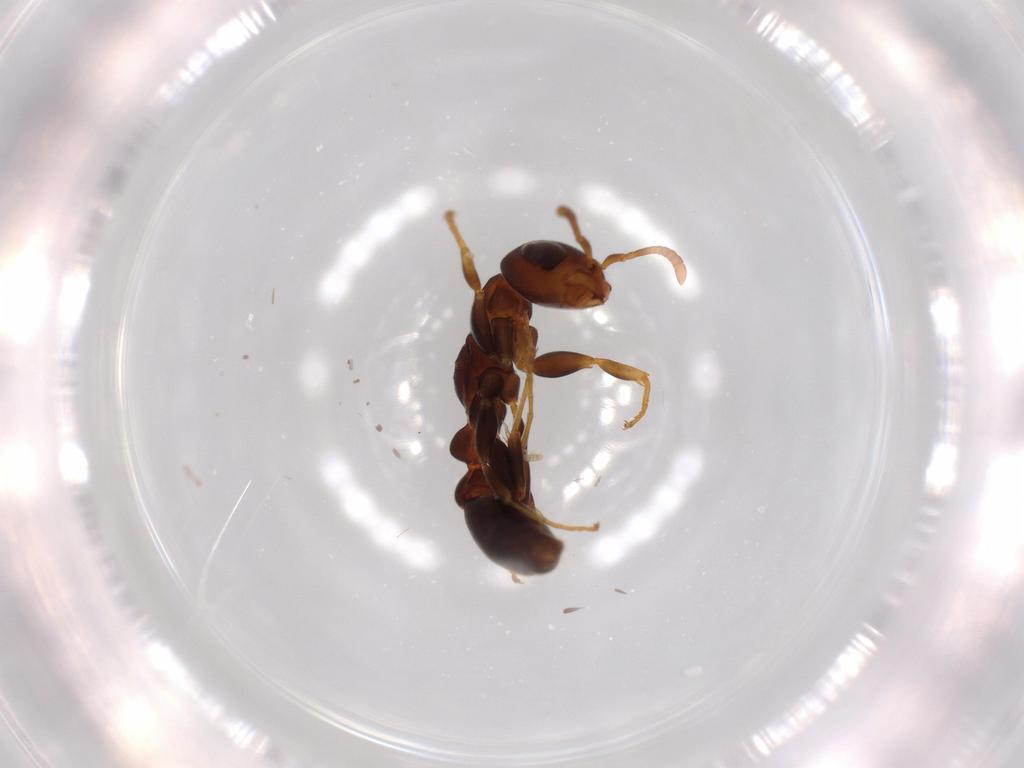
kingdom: Animalia
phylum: Arthropoda
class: Insecta
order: Hymenoptera
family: Formicidae
